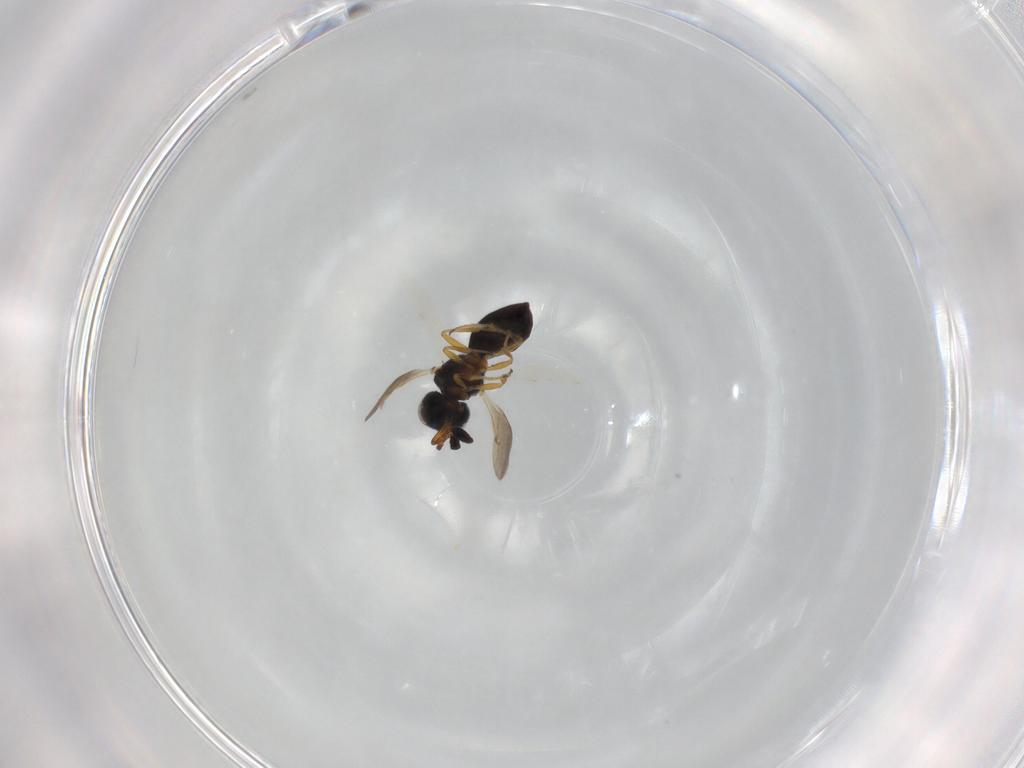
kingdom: Animalia
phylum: Arthropoda
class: Insecta
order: Hymenoptera
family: Scelionidae
